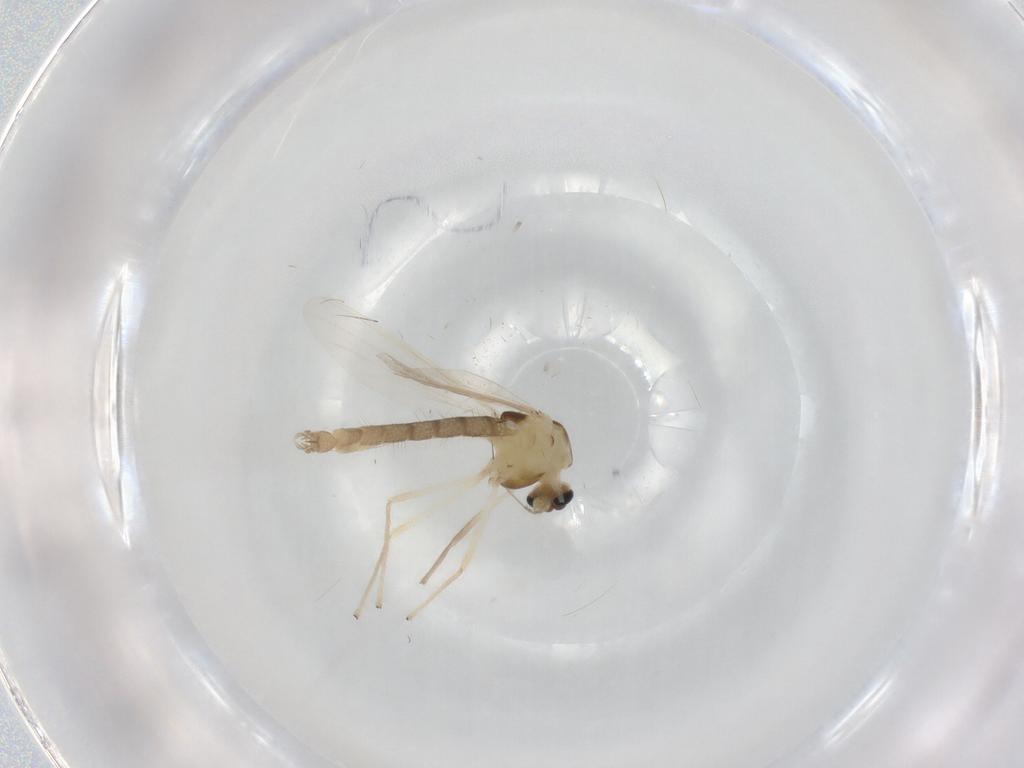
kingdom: Animalia
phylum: Arthropoda
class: Insecta
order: Diptera
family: Chironomidae
